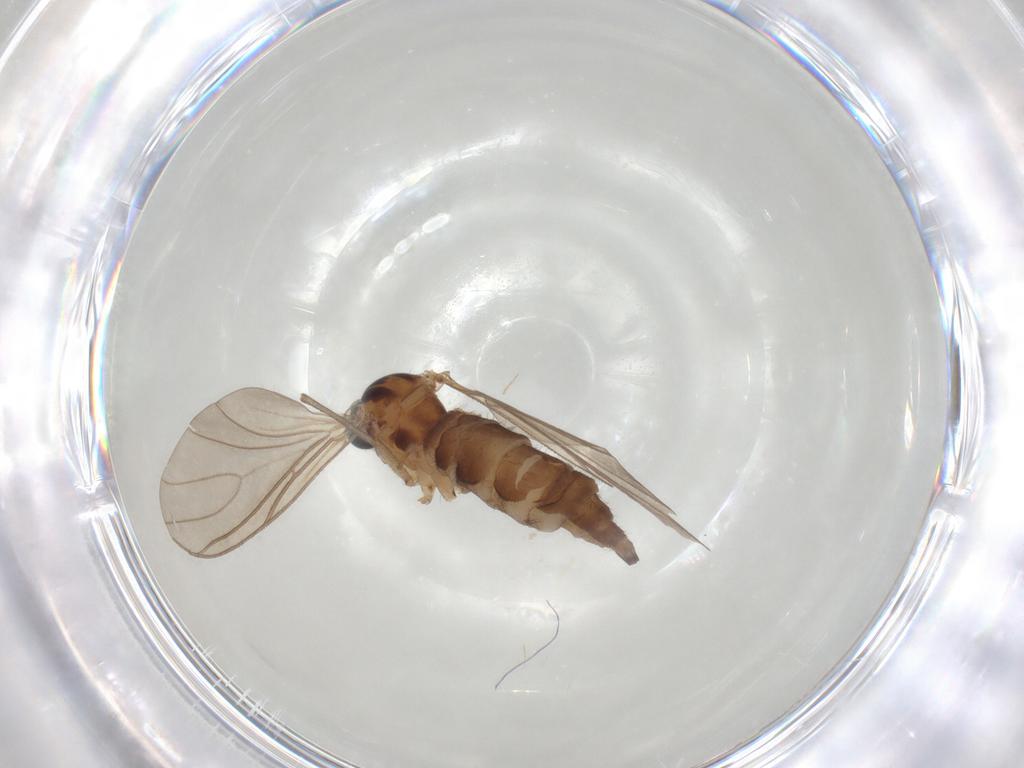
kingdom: Animalia
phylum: Arthropoda
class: Insecta
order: Diptera
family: Sciaridae
